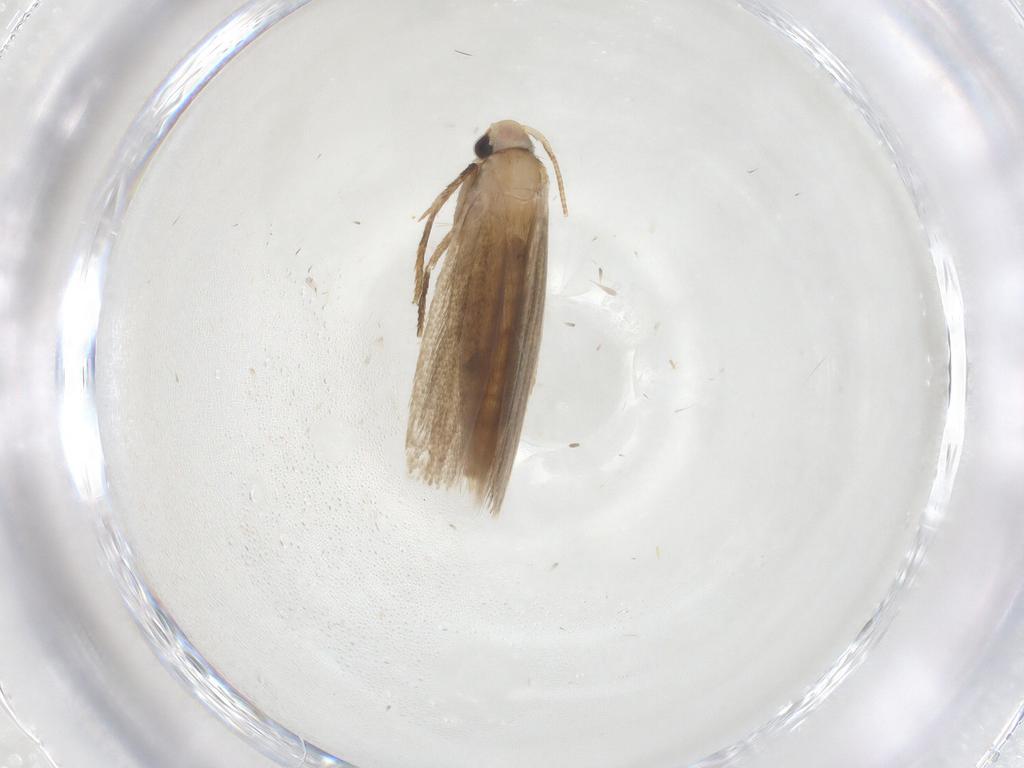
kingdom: Animalia
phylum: Arthropoda
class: Insecta
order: Lepidoptera
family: Tineidae
